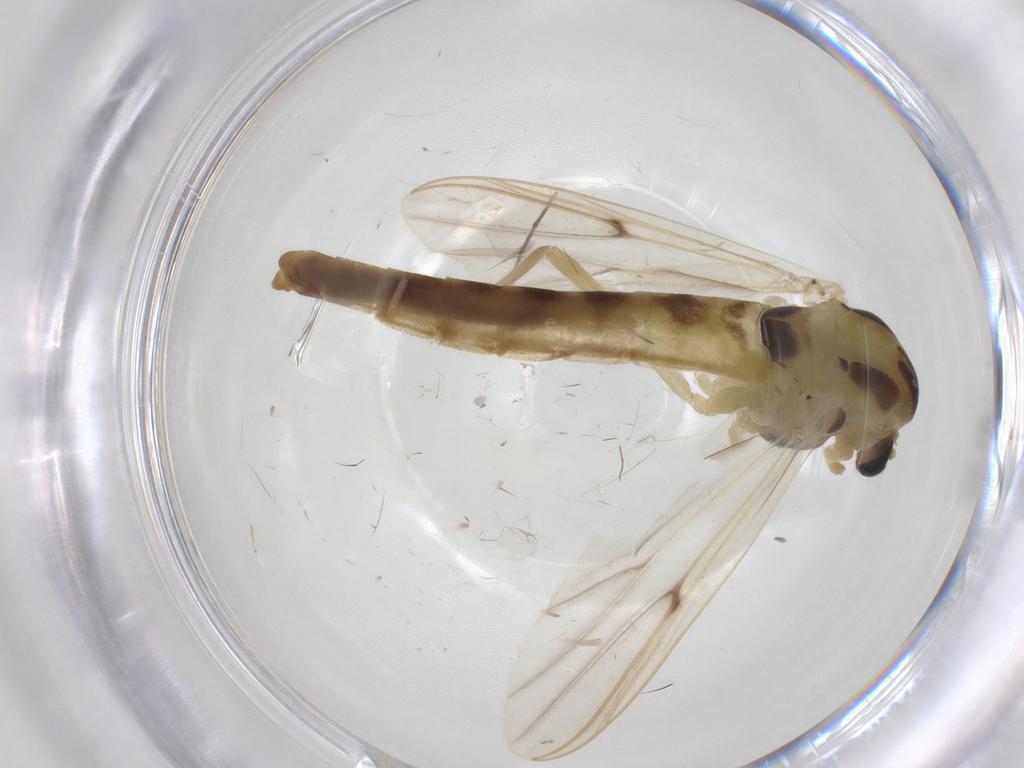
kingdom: Animalia
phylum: Arthropoda
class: Insecta
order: Diptera
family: Chironomidae
